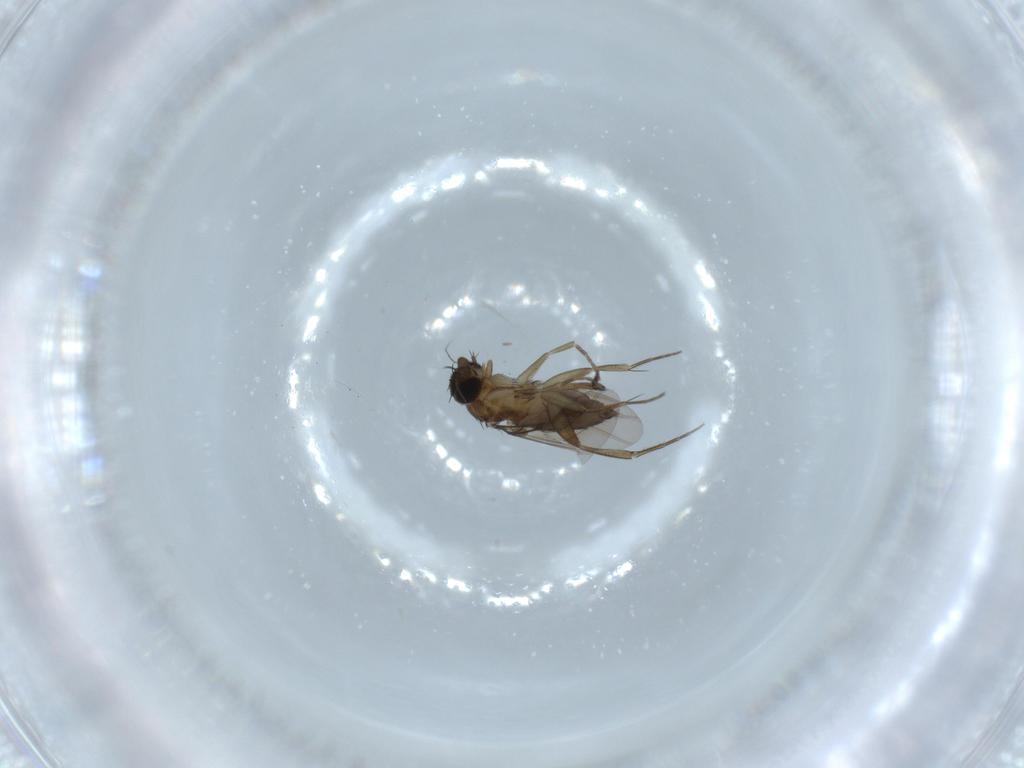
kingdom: Animalia
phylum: Arthropoda
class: Insecta
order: Diptera
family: Phoridae
